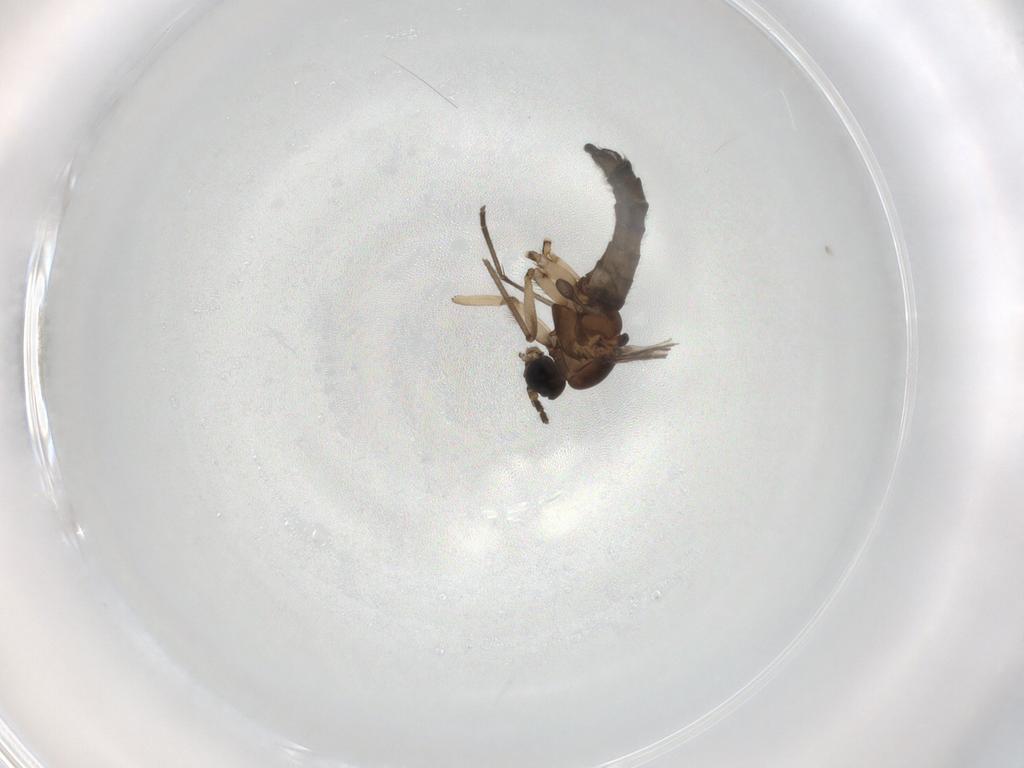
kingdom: Animalia
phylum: Arthropoda
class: Insecta
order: Diptera
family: Sciaridae
